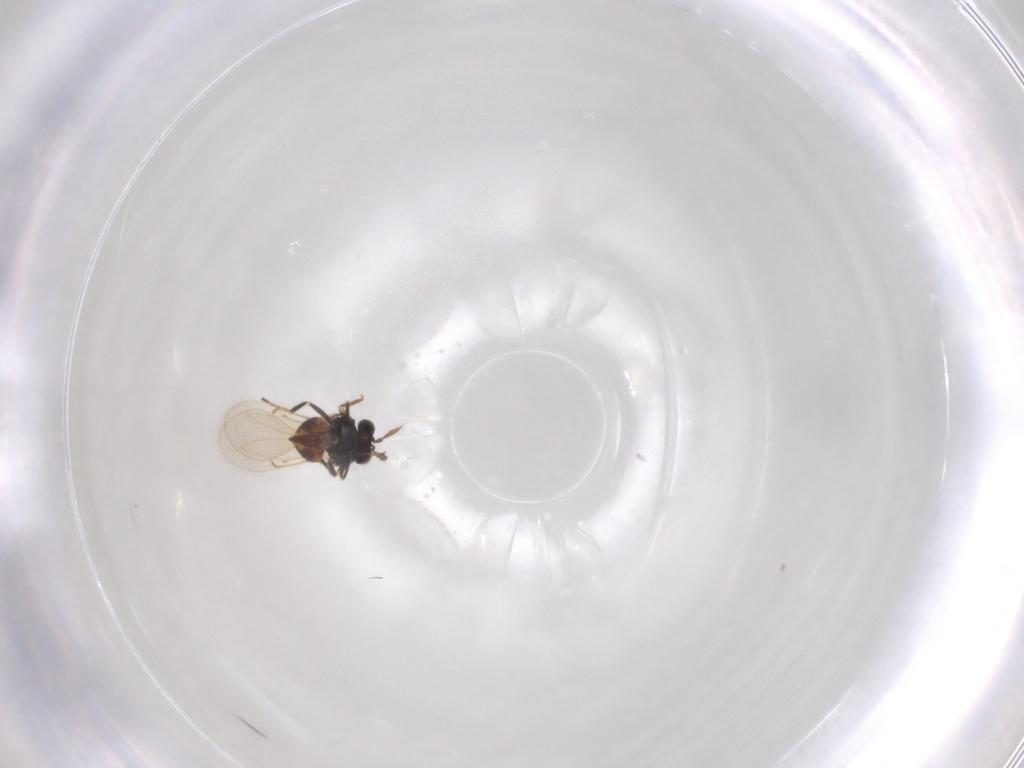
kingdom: Animalia
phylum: Arthropoda
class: Insecta
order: Hymenoptera
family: Eurytomidae
